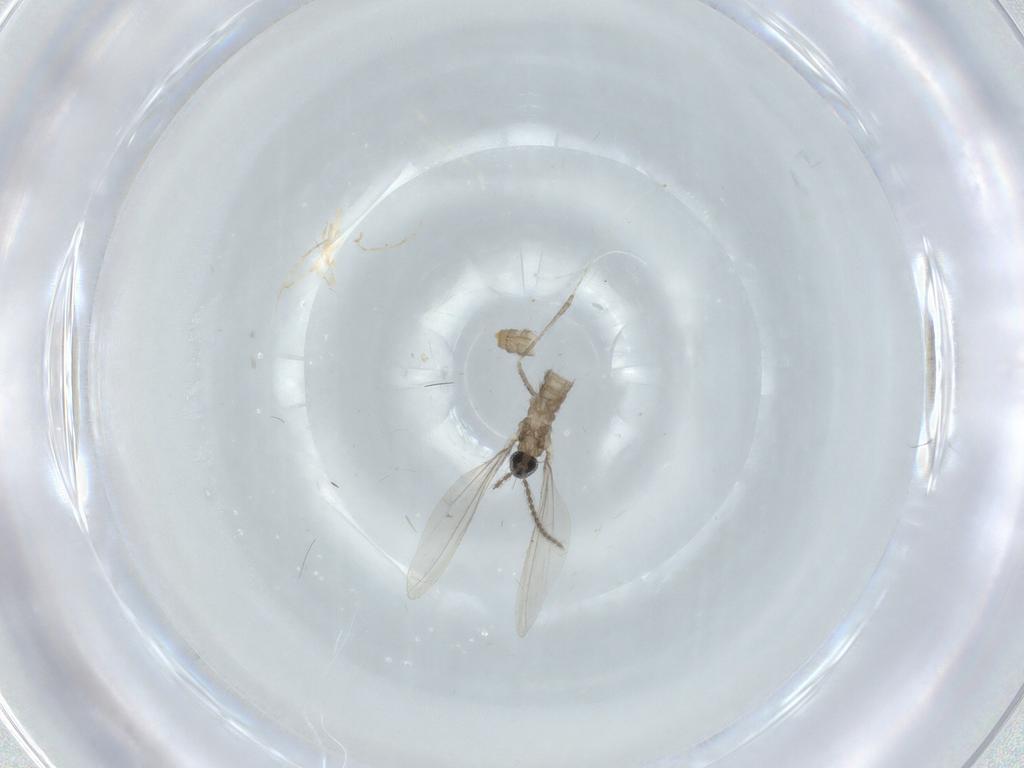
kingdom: Animalia
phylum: Arthropoda
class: Insecta
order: Diptera
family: Cecidomyiidae
